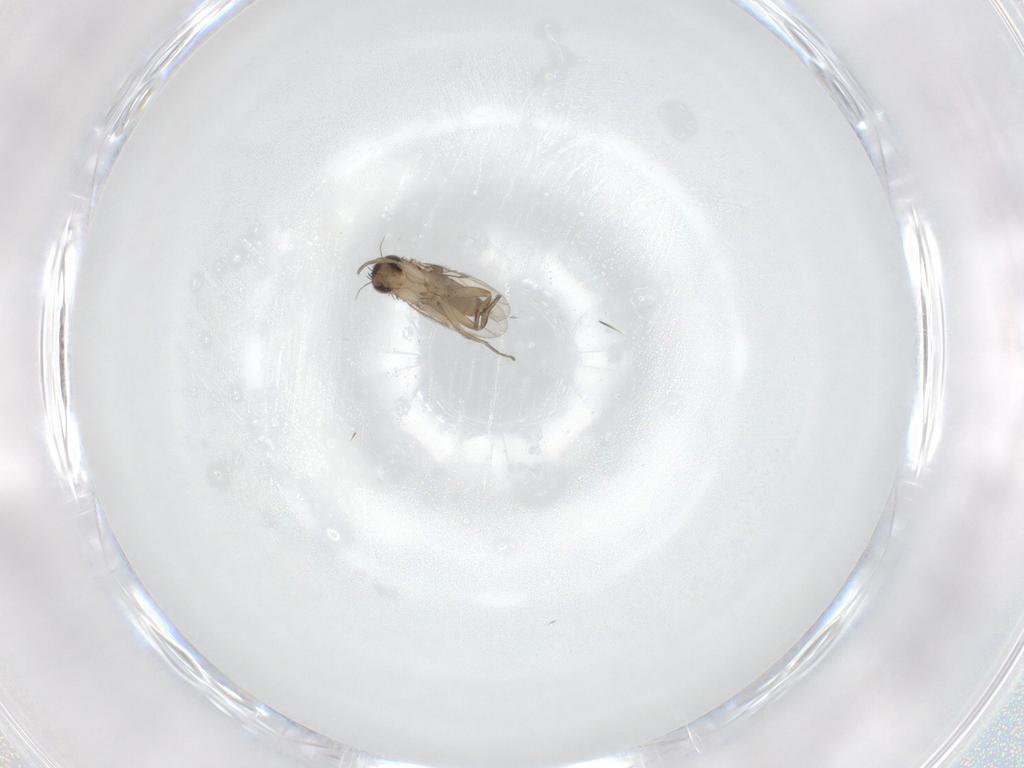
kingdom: Animalia
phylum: Arthropoda
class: Insecta
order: Diptera
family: Phoridae
